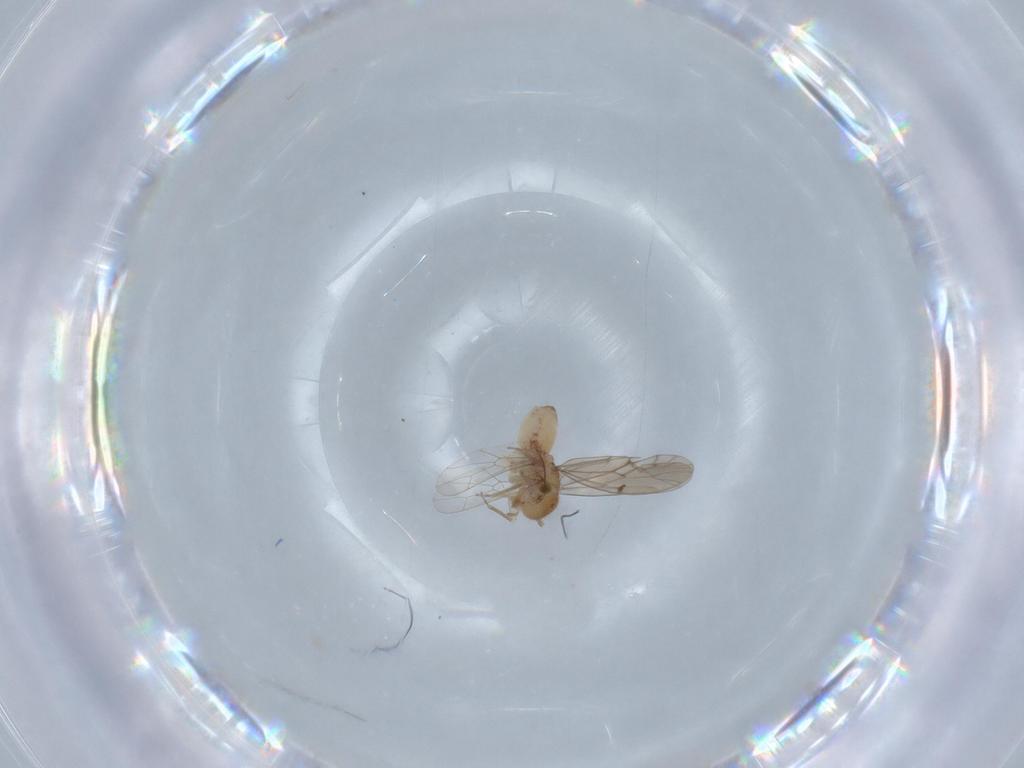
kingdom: Animalia
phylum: Arthropoda
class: Insecta
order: Psocodea
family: Ectopsocidae
